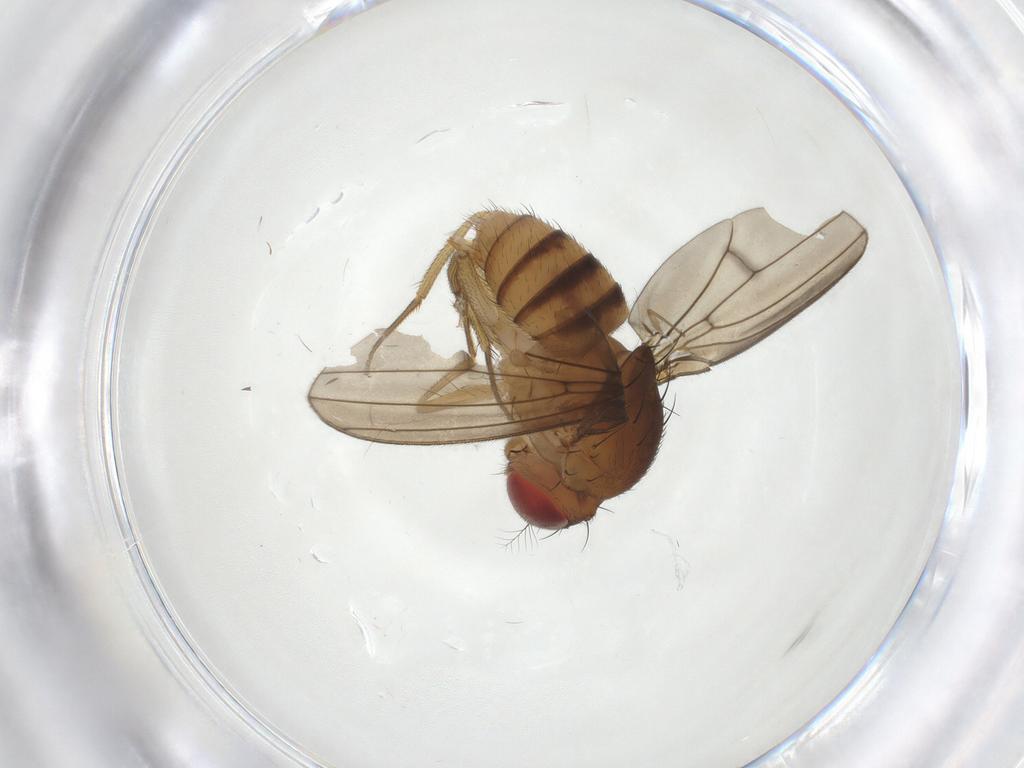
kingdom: Animalia
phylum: Arthropoda
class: Insecta
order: Diptera
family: Drosophilidae
